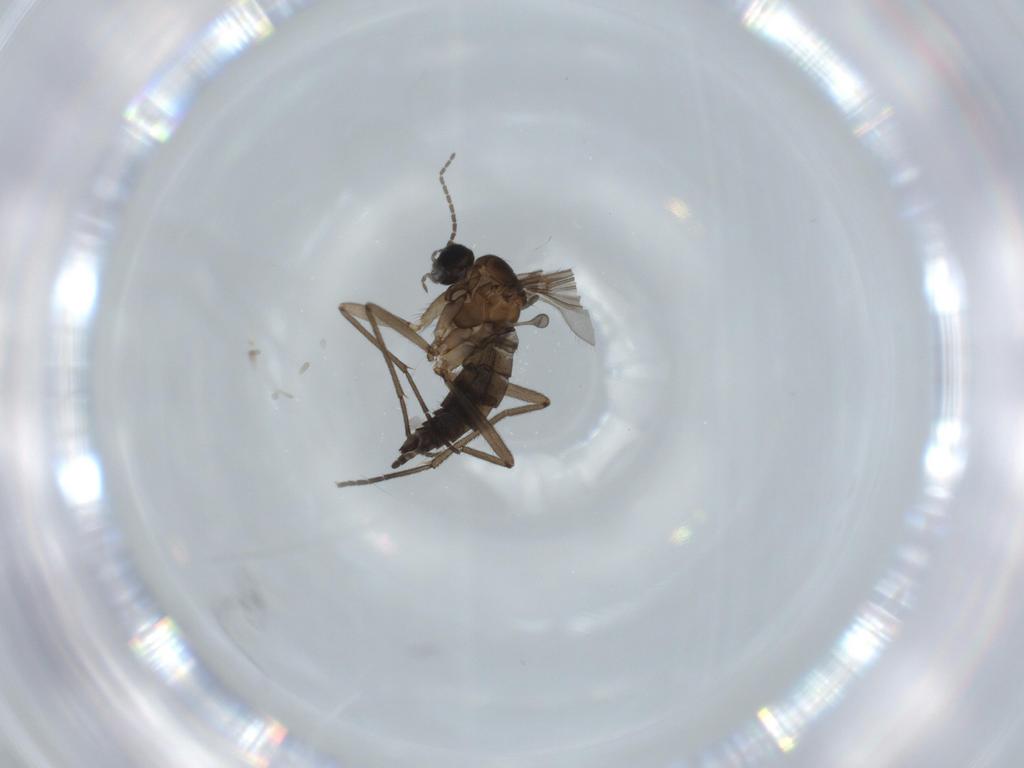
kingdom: Animalia
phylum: Arthropoda
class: Insecta
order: Diptera
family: Sciaridae
